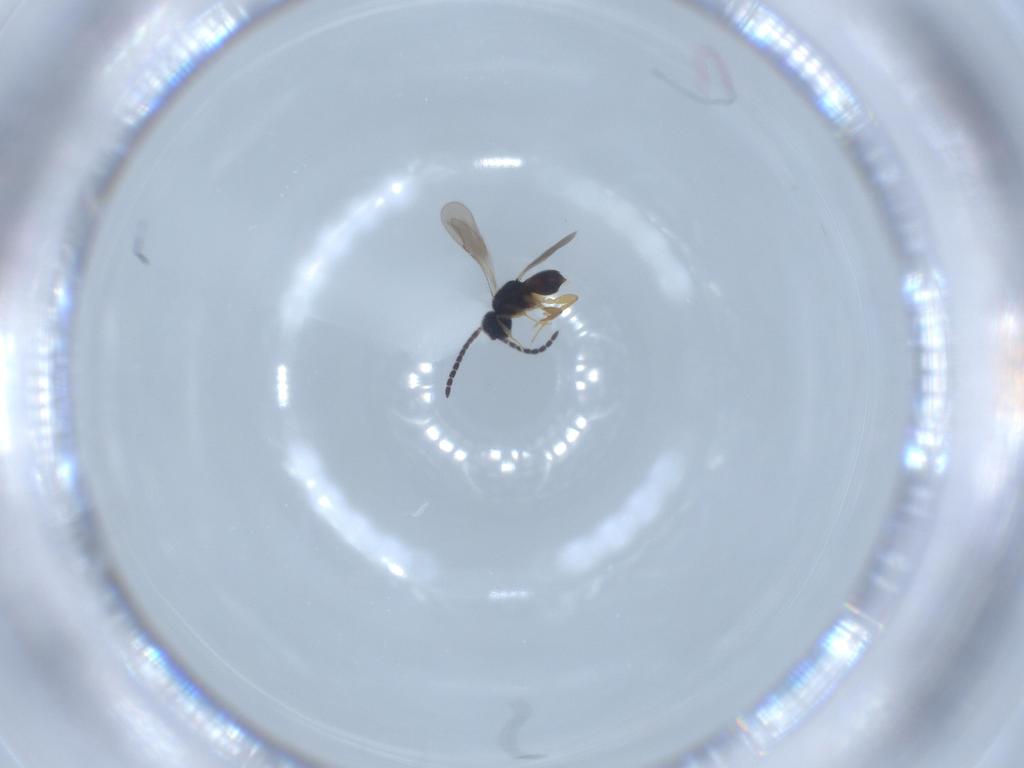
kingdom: Animalia
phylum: Arthropoda
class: Insecta
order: Hymenoptera
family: Ceraphronidae
